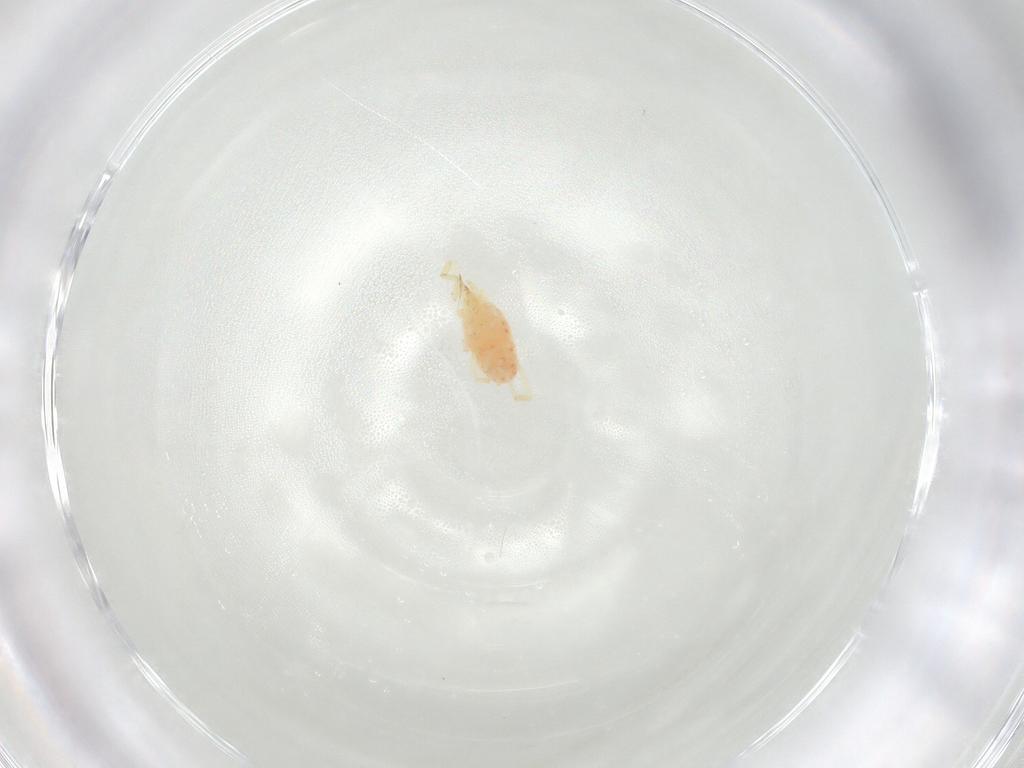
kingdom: Animalia
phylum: Arthropoda
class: Arachnida
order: Trombidiformes
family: Erythraeidae
